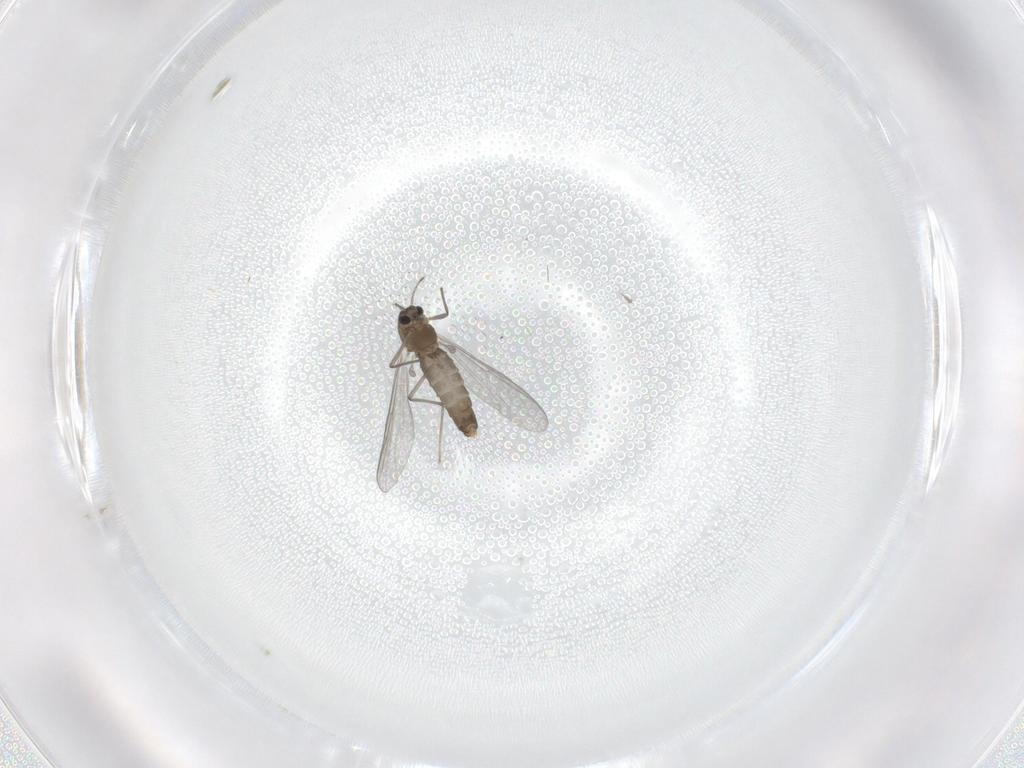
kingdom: Animalia
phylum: Arthropoda
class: Insecta
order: Diptera
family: Chironomidae
